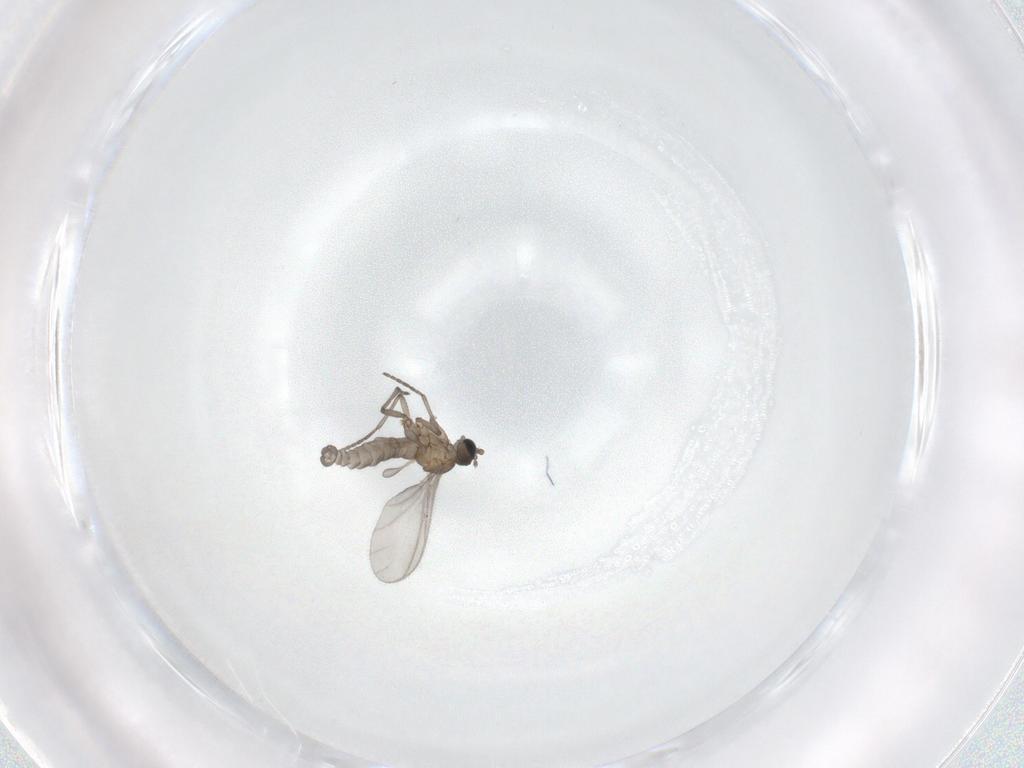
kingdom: Animalia
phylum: Arthropoda
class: Insecta
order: Diptera
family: Sciaridae
